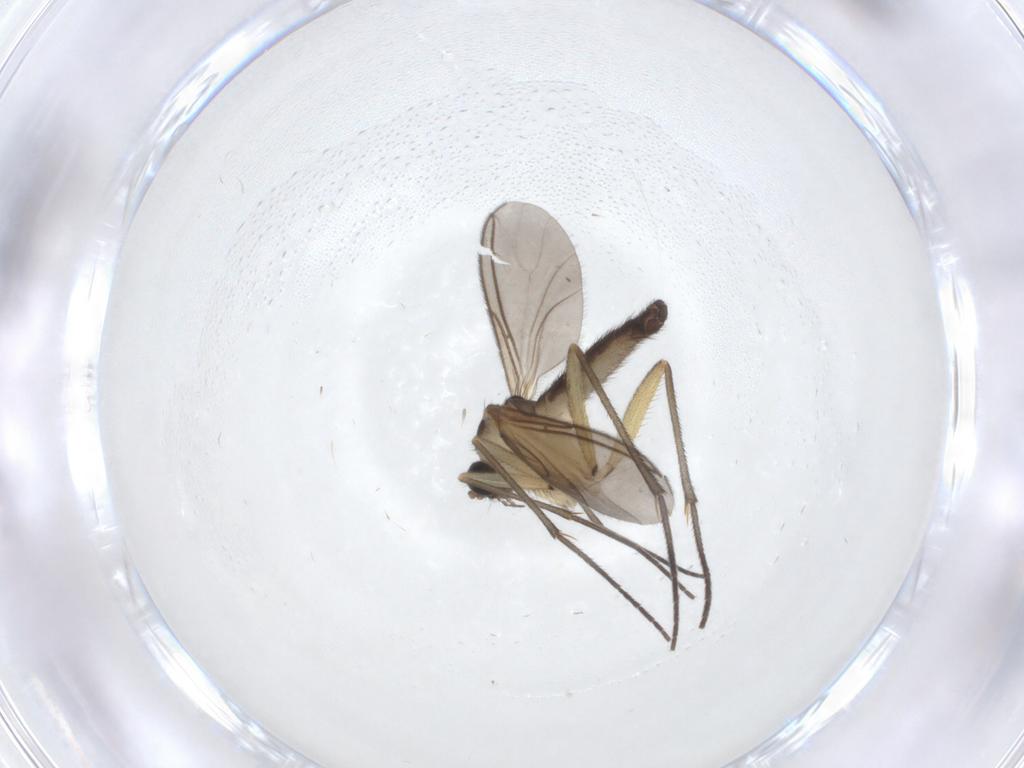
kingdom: Animalia
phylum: Arthropoda
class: Insecta
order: Diptera
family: Sciaridae
